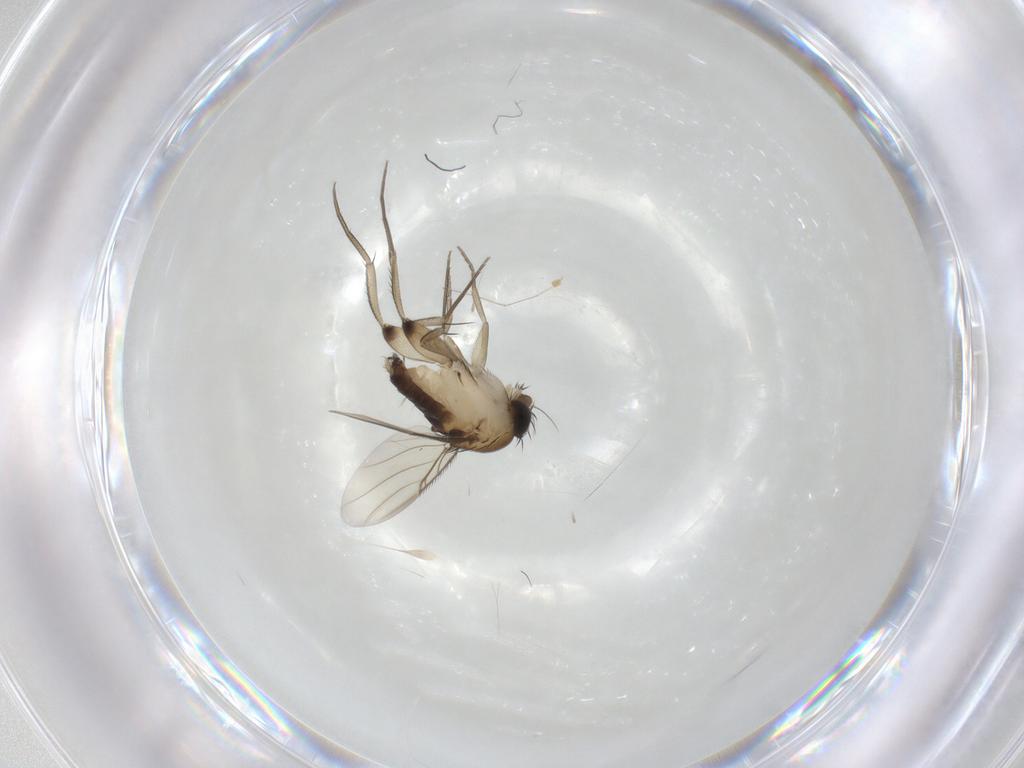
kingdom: Animalia
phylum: Arthropoda
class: Insecta
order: Diptera
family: Phoridae
